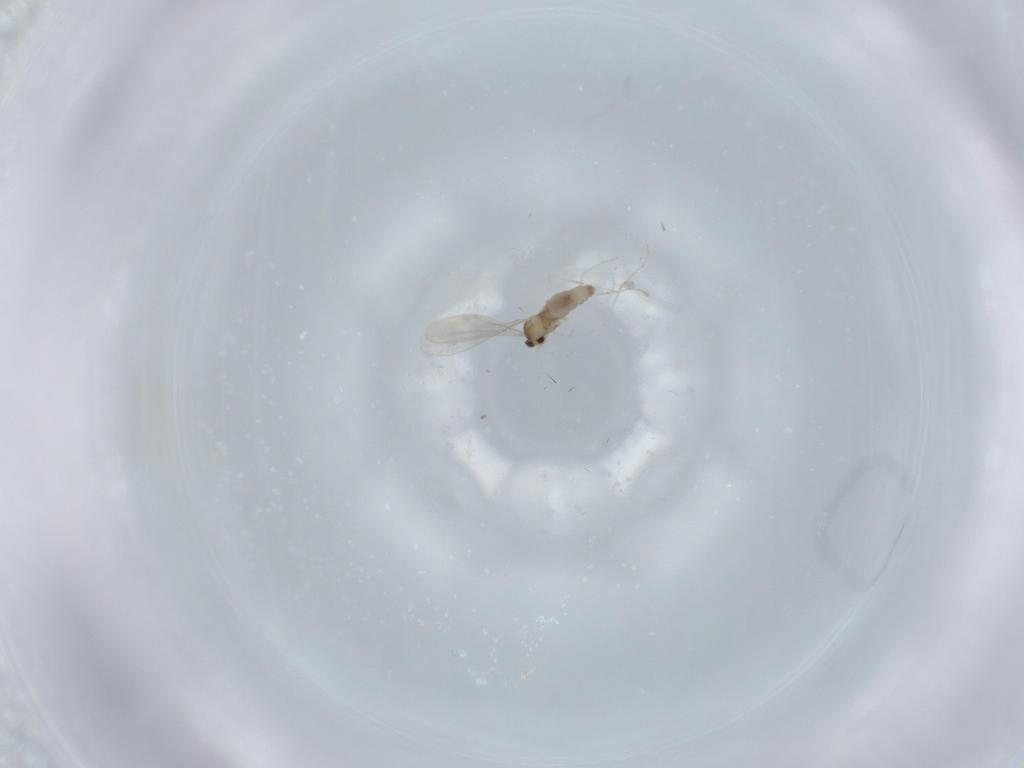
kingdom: Animalia
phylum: Arthropoda
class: Insecta
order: Diptera
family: Cecidomyiidae
